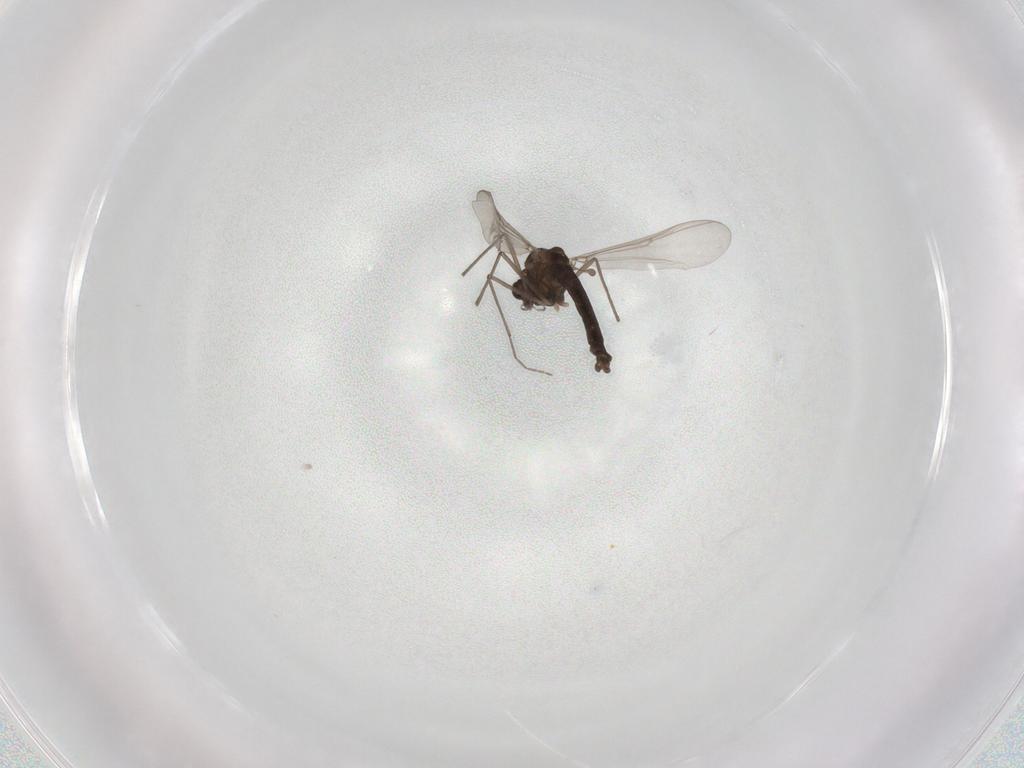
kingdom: Animalia
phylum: Arthropoda
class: Insecta
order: Diptera
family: Chironomidae
